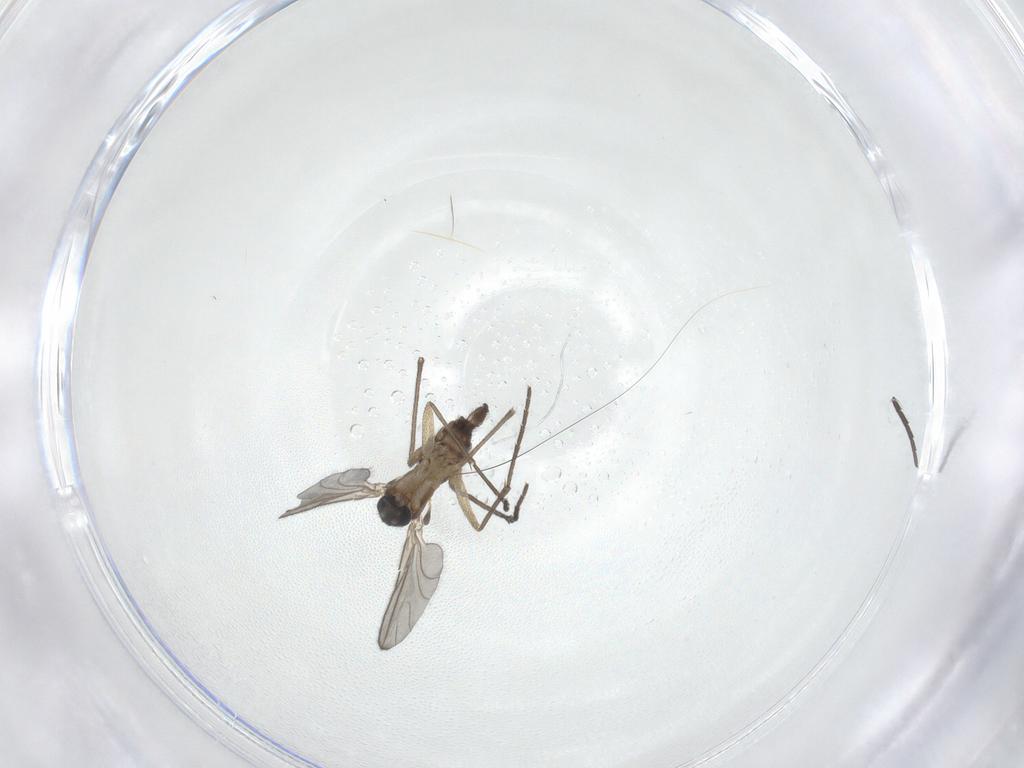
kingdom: Animalia
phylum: Arthropoda
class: Insecta
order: Diptera
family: Sciaridae
